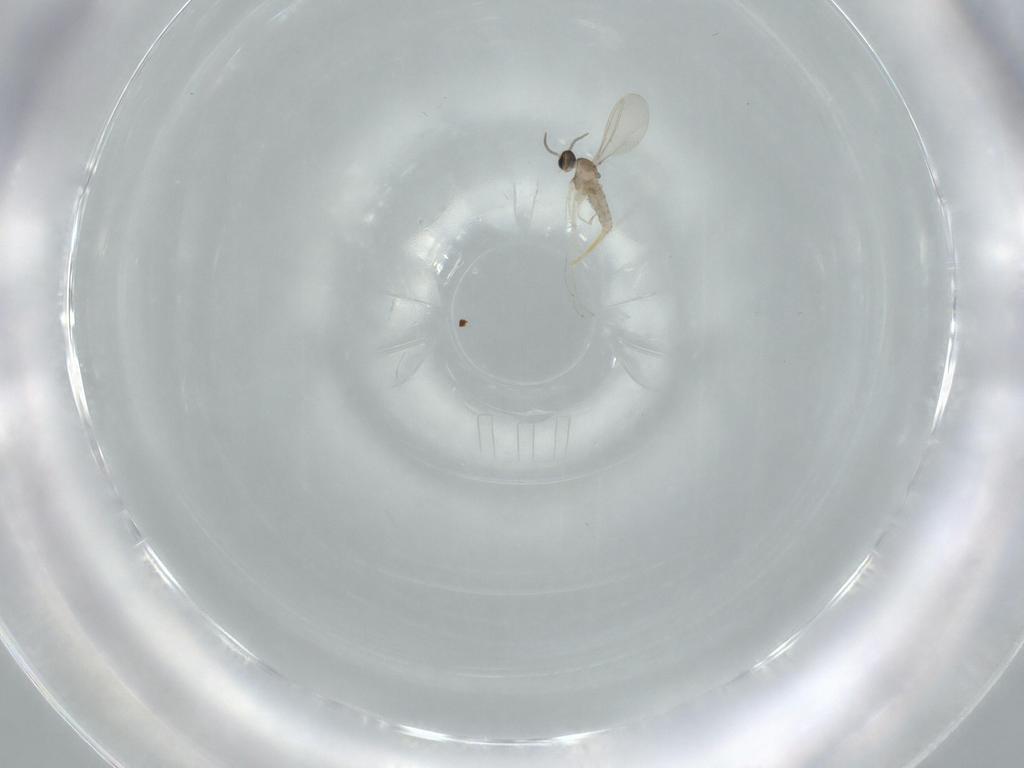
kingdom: Animalia
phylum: Arthropoda
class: Insecta
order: Diptera
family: Cecidomyiidae
